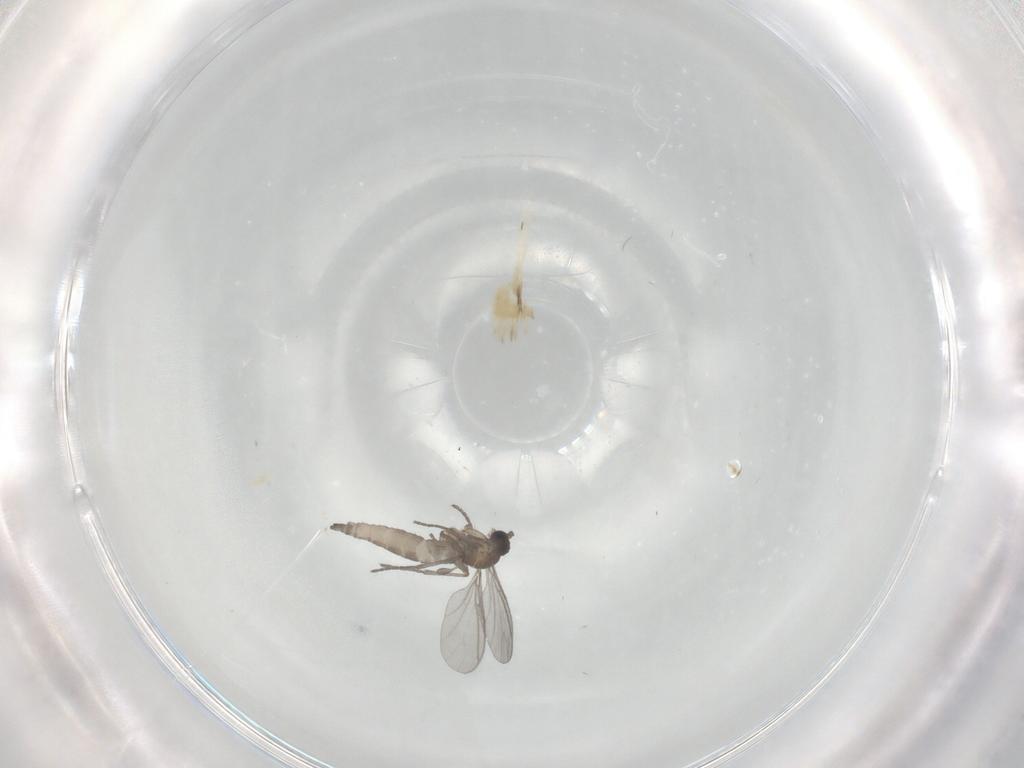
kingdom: Animalia
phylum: Arthropoda
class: Insecta
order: Diptera
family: Sciaridae
